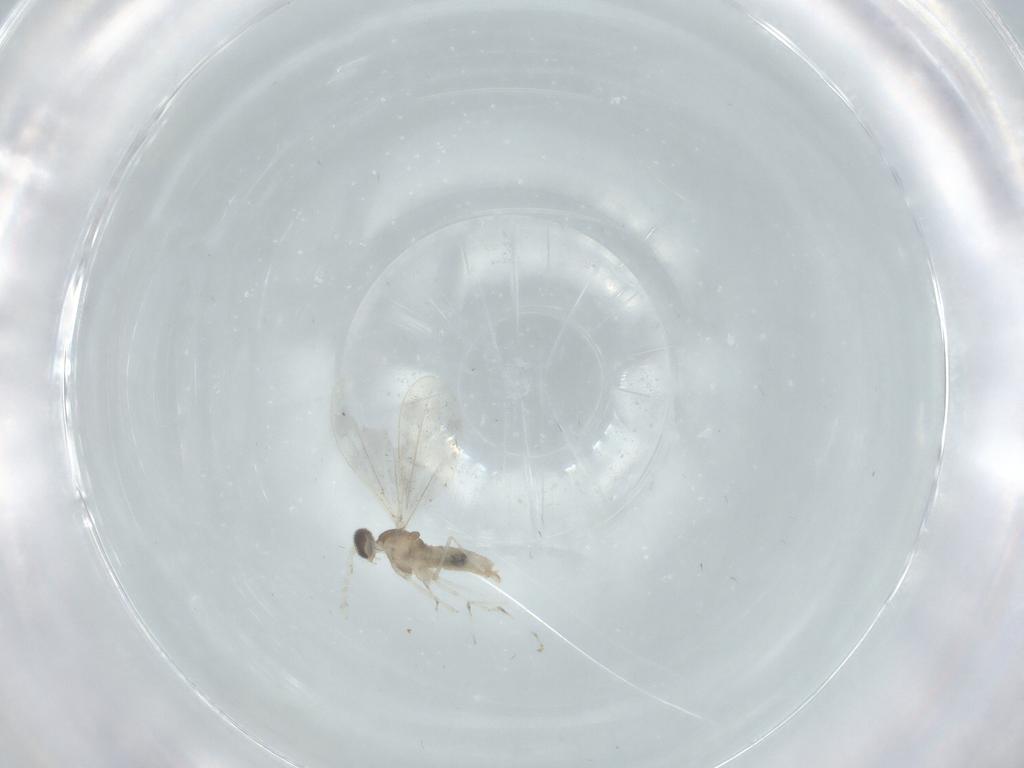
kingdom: Animalia
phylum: Arthropoda
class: Insecta
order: Diptera
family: Cecidomyiidae
